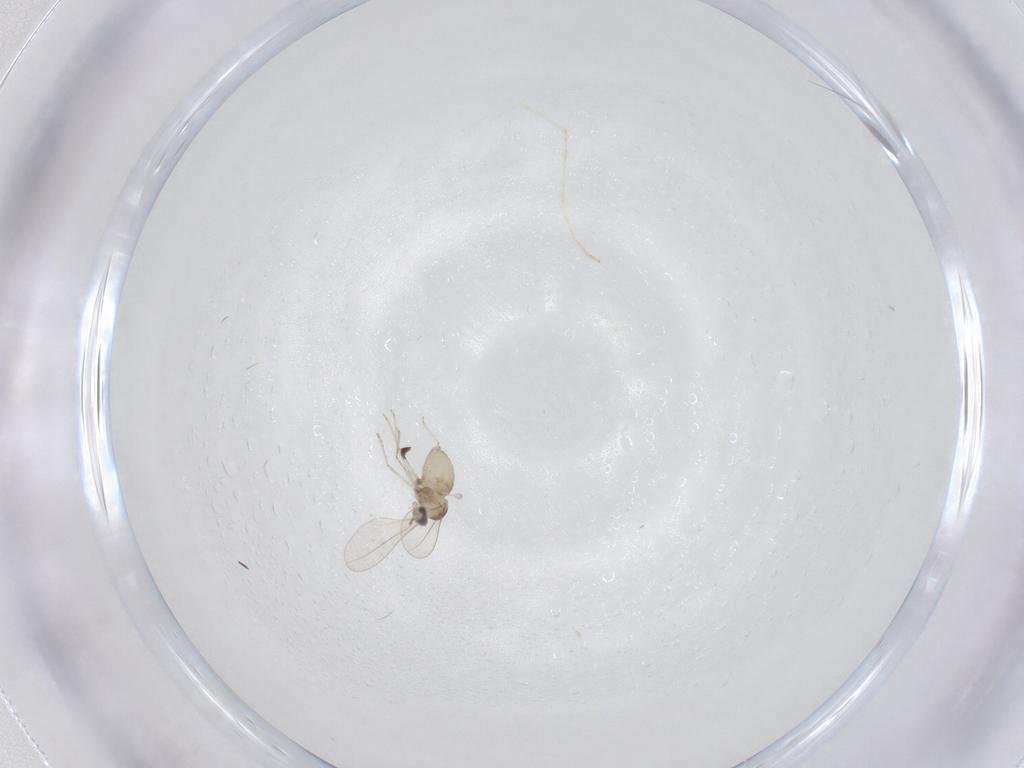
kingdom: Animalia
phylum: Arthropoda
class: Insecta
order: Diptera
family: Cecidomyiidae
